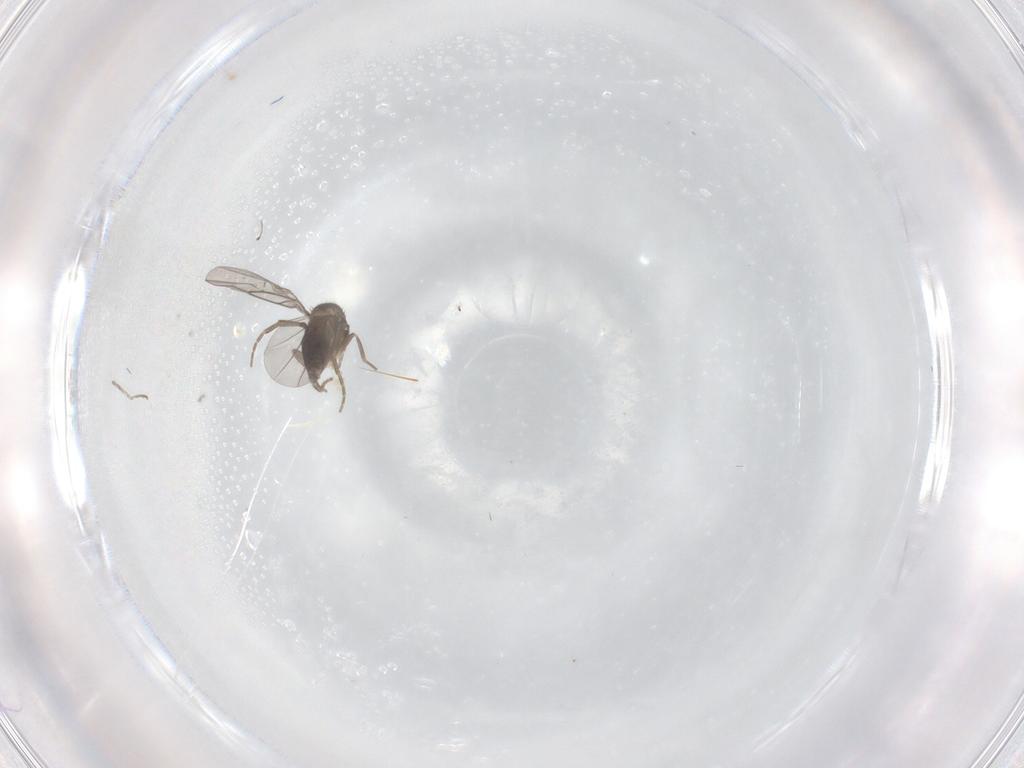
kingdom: Animalia
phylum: Arthropoda
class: Insecta
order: Diptera
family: Phoridae
